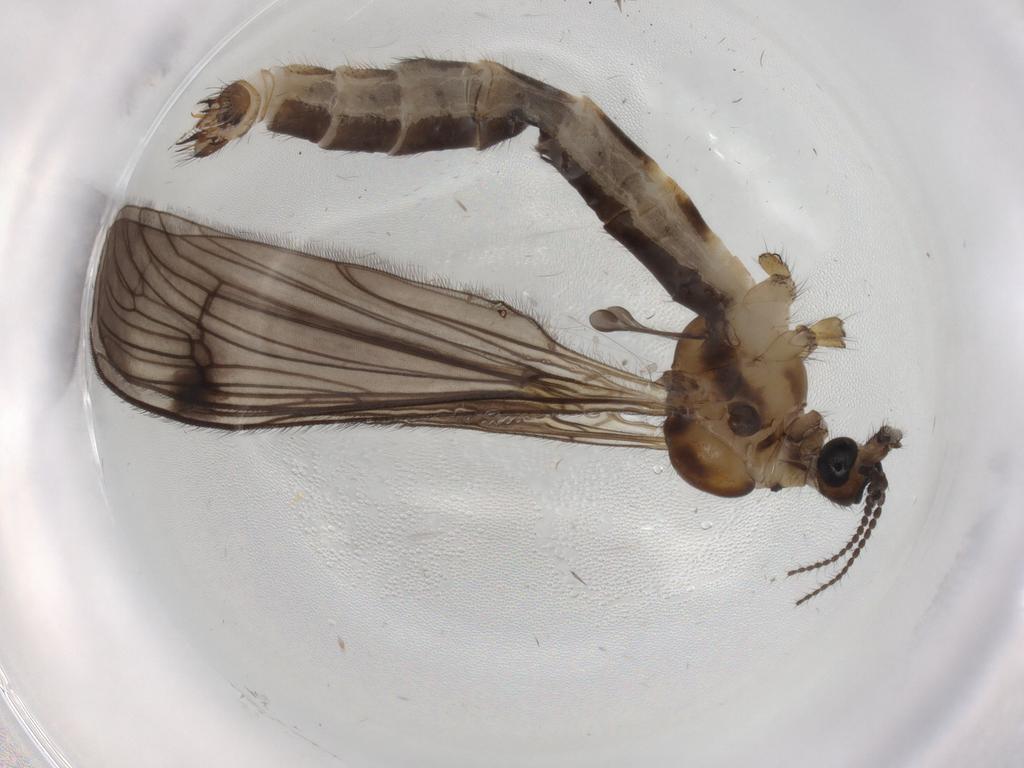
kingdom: Animalia
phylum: Arthropoda
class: Insecta
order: Diptera
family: Limoniidae
